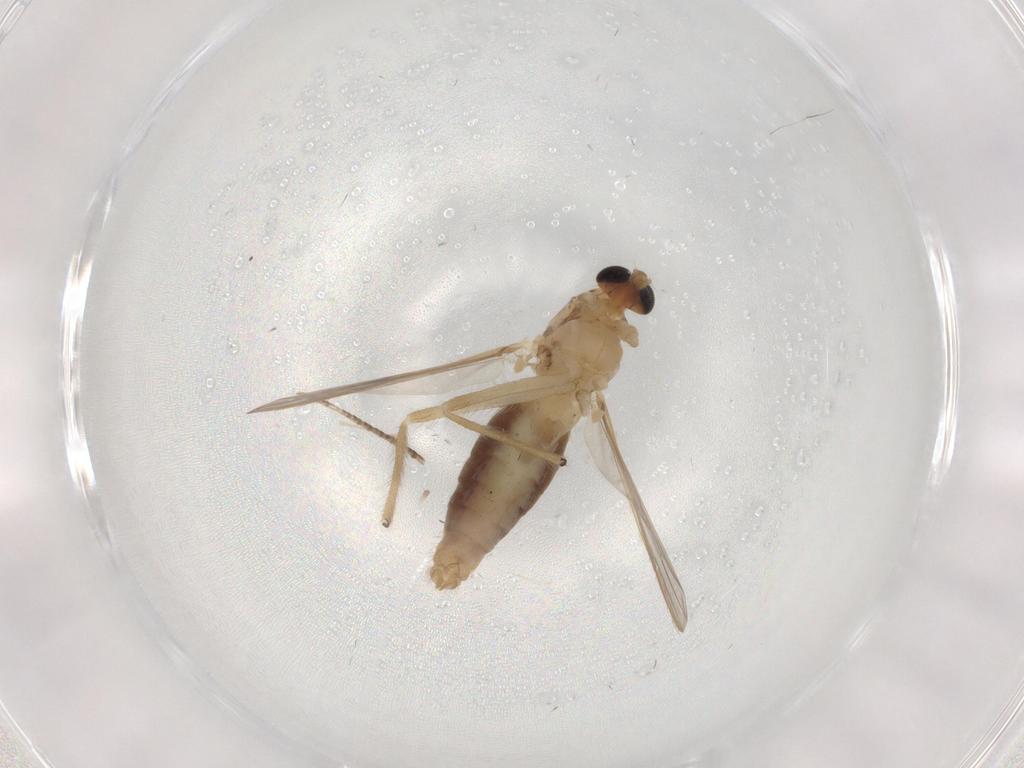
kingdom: Animalia
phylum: Arthropoda
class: Insecta
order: Diptera
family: Chironomidae
